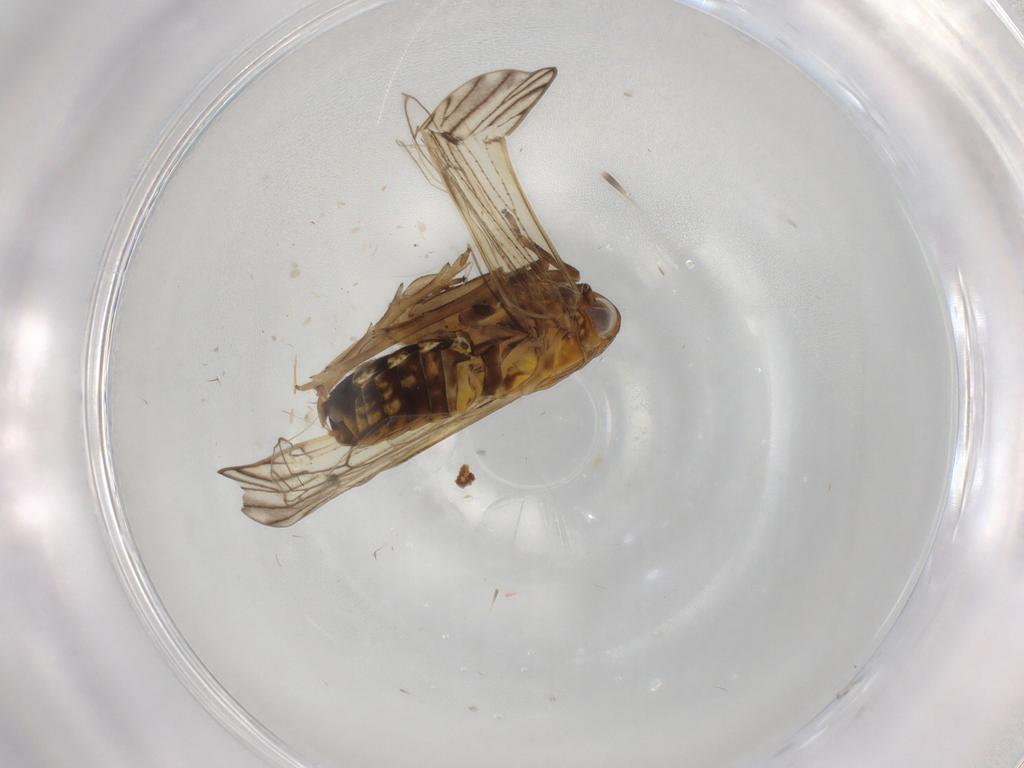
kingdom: Animalia
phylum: Arthropoda
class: Insecta
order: Hemiptera
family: Delphacidae
